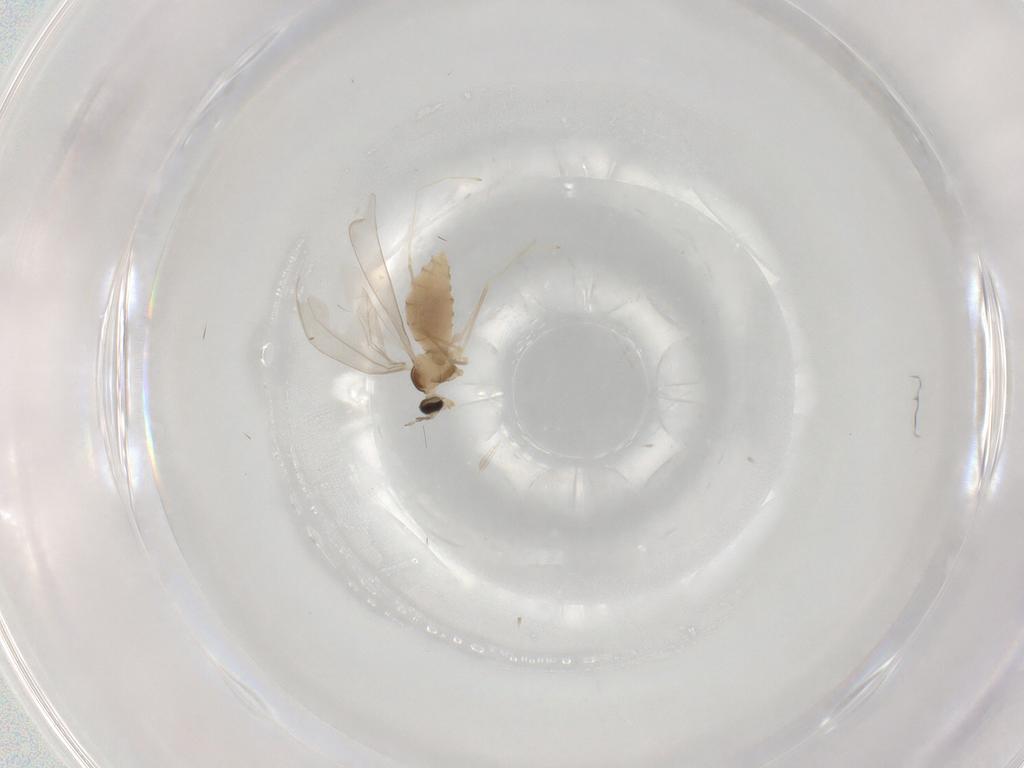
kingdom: Animalia
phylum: Arthropoda
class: Insecta
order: Diptera
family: Cecidomyiidae
